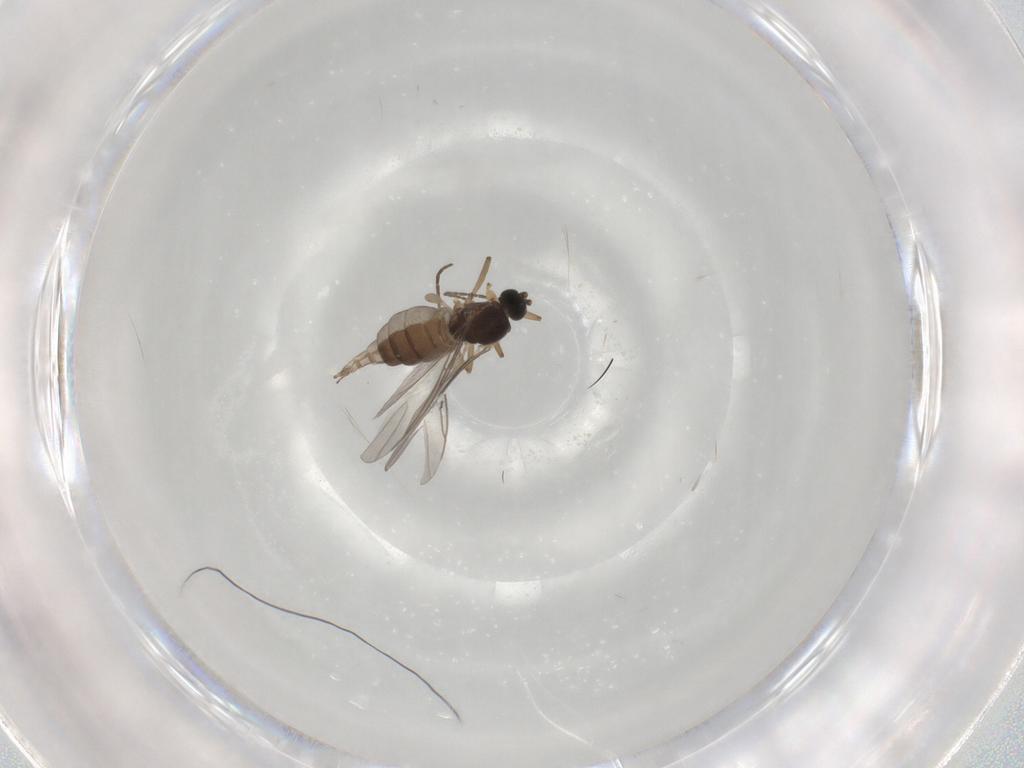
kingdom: Animalia
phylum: Arthropoda
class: Insecta
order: Diptera
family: Sciaridae
